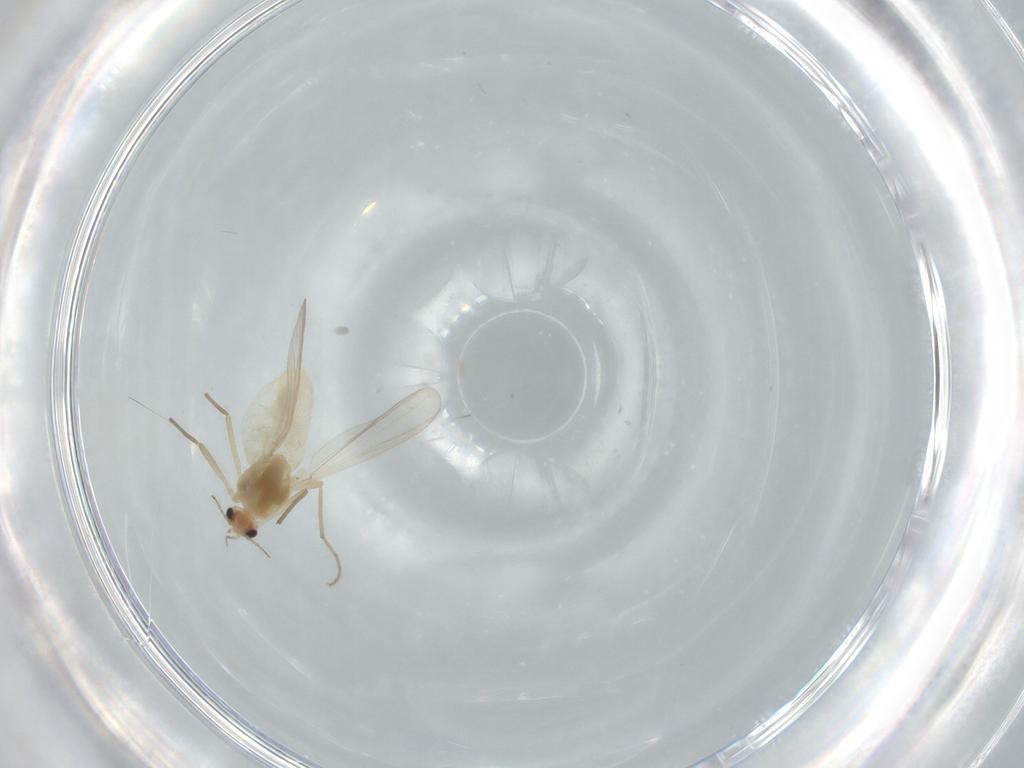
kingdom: Animalia
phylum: Arthropoda
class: Insecta
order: Diptera
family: Chironomidae
